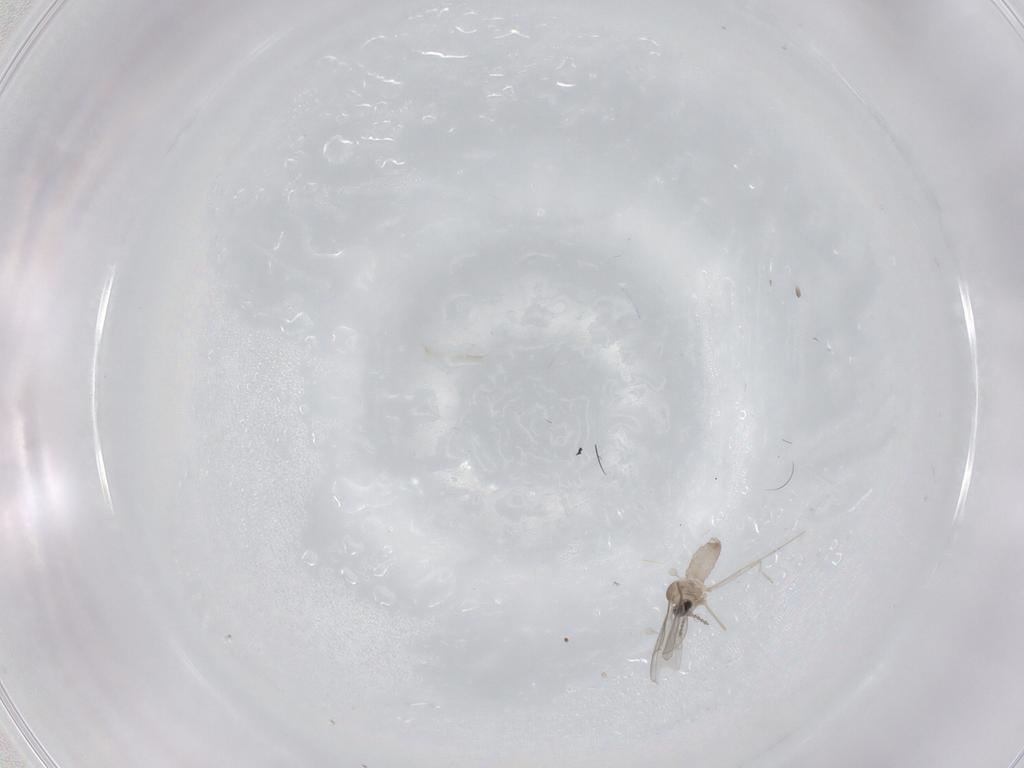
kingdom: Animalia
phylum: Arthropoda
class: Insecta
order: Diptera
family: Cecidomyiidae
